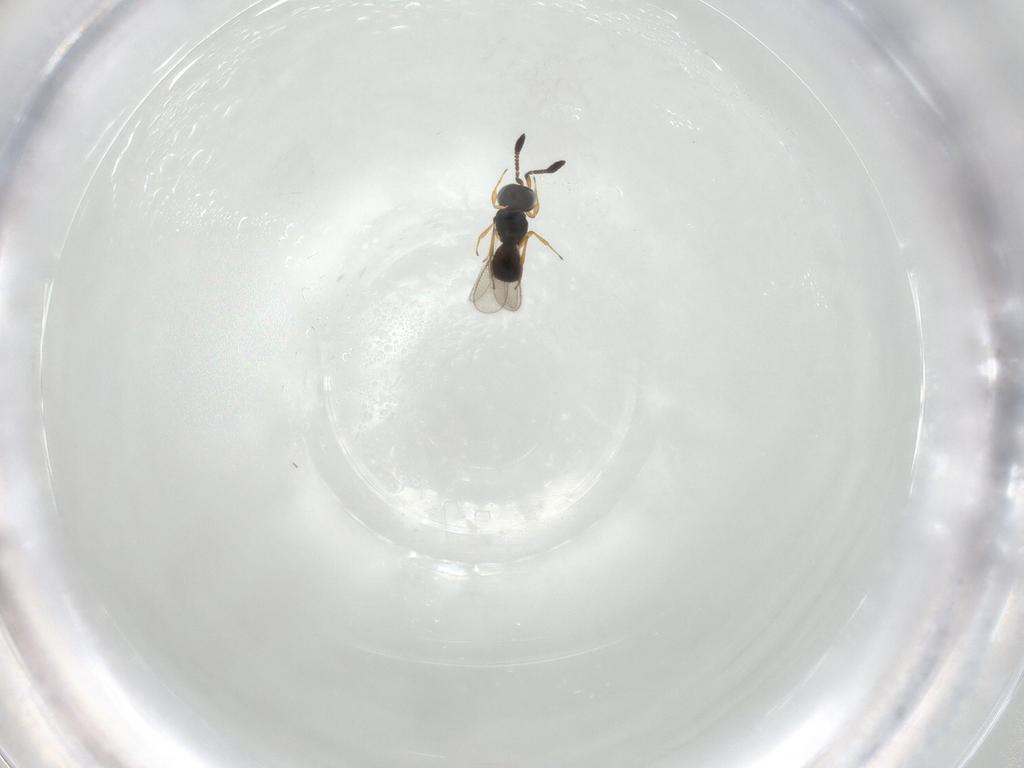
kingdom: Animalia
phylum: Arthropoda
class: Insecta
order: Hymenoptera
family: Scelionidae
